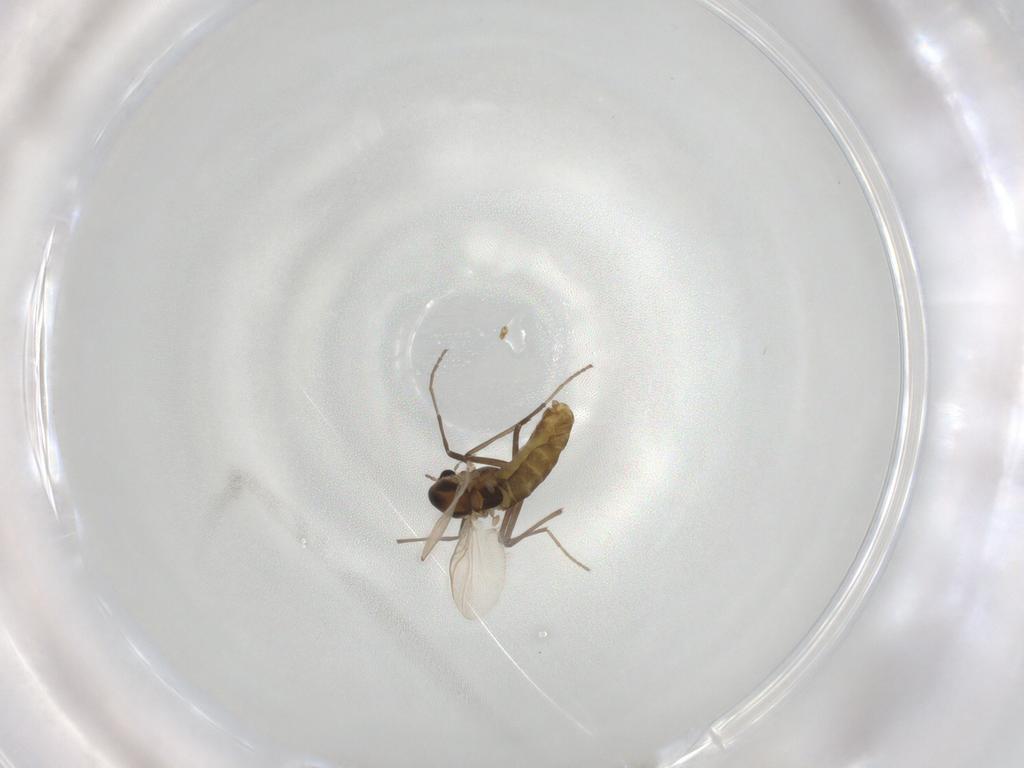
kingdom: Animalia
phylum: Arthropoda
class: Insecta
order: Diptera
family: Chironomidae
